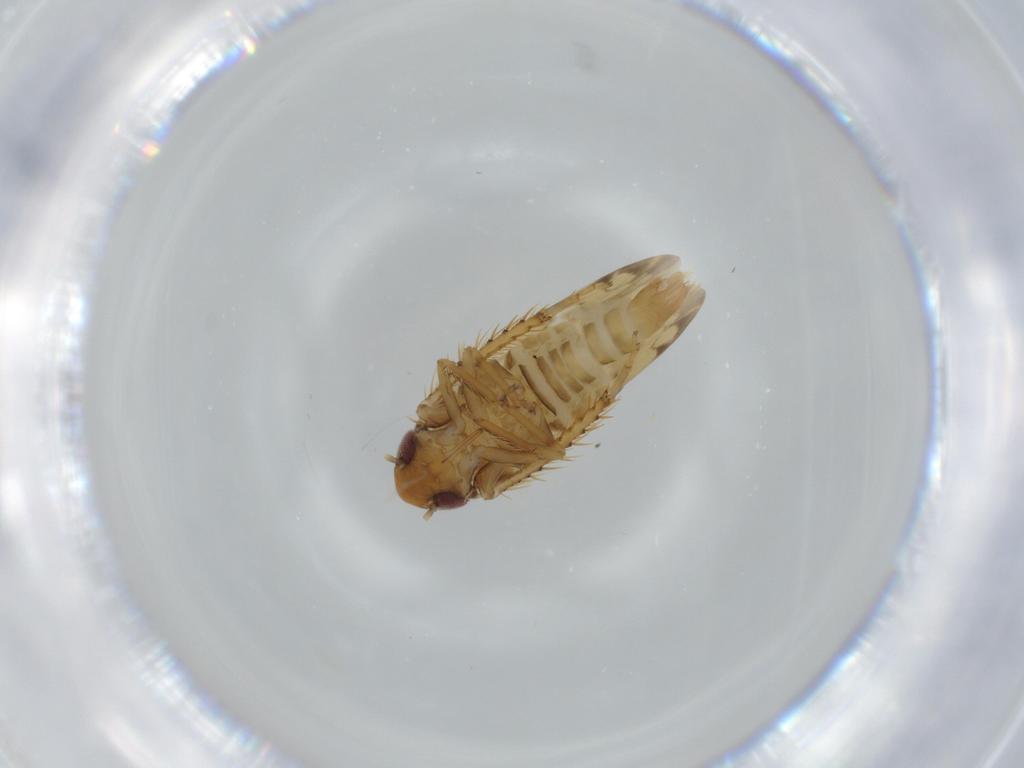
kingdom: Animalia
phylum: Arthropoda
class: Insecta
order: Hemiptera
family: Cicadellidae
